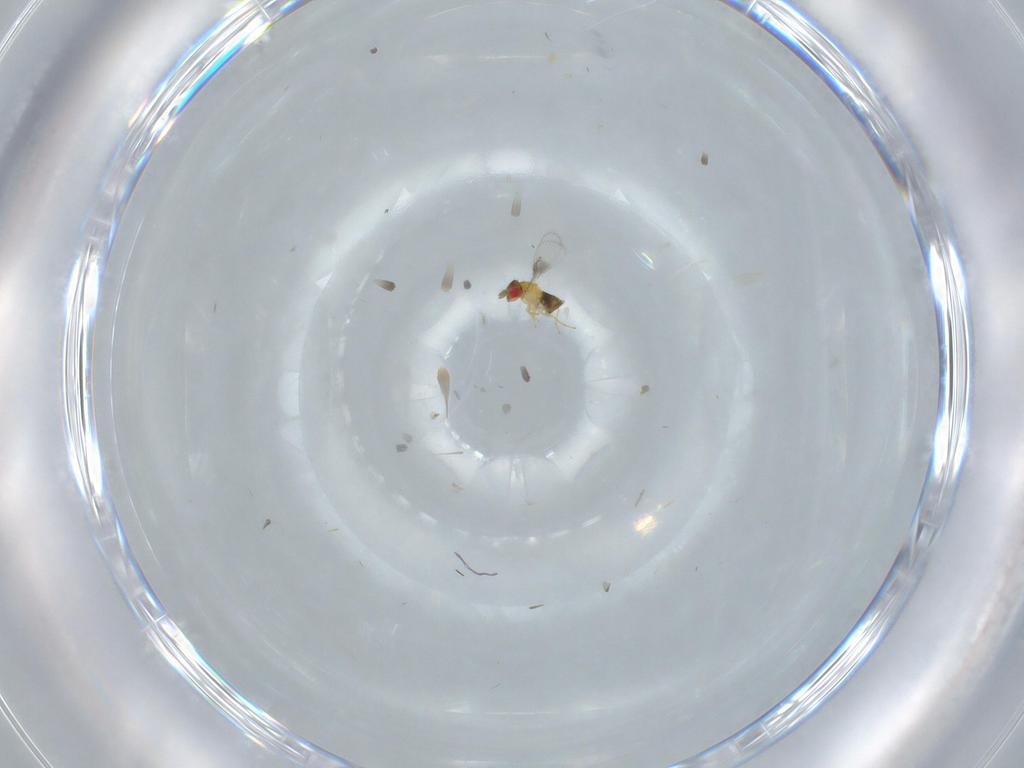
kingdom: Animalia
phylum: Arthropoda
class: Insecta
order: Hymenoptera
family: Trichogrammatidae
